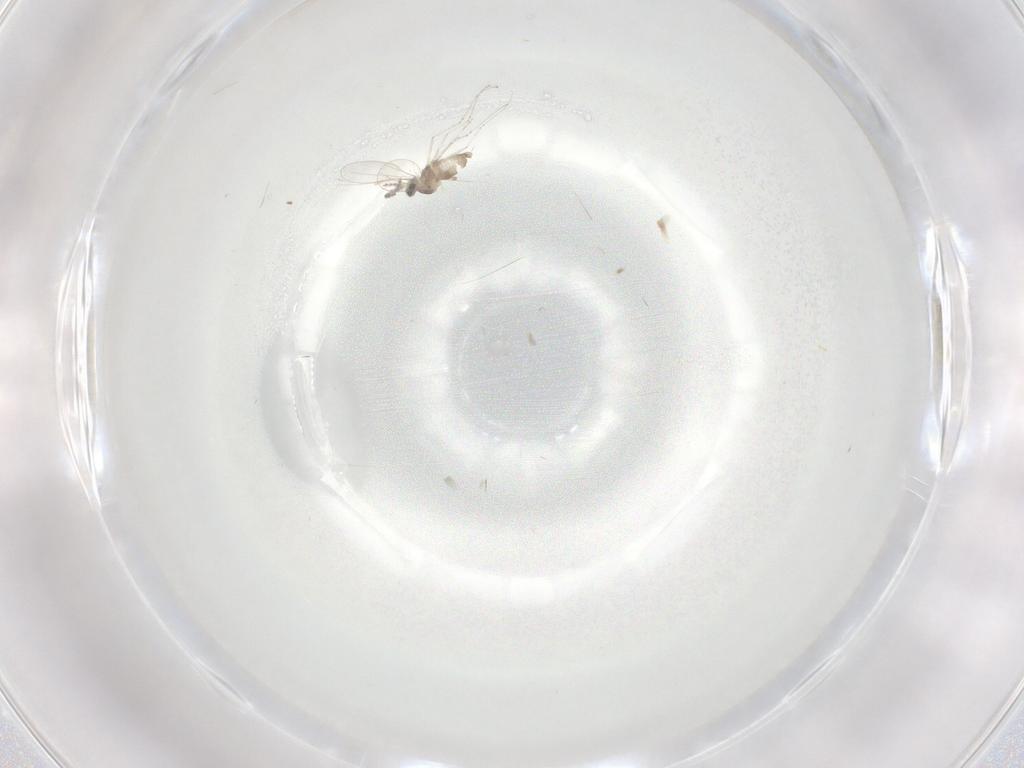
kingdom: Animalia
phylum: Arthropoda
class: Insecta
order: Diptera
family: Cecidomyiidae
